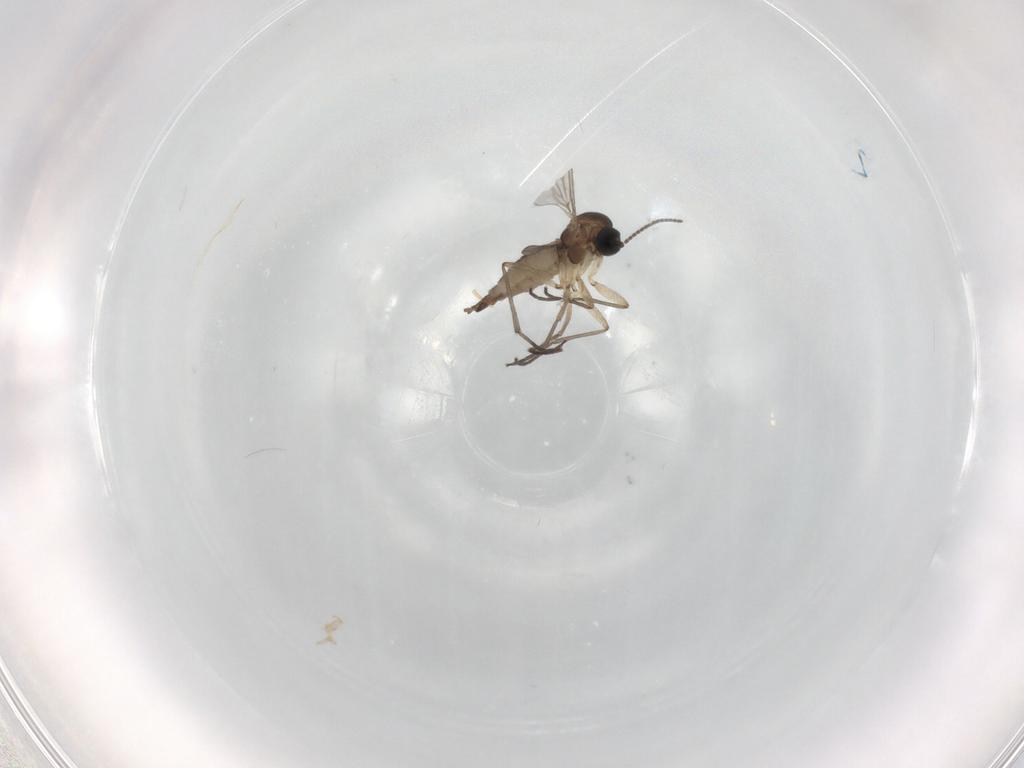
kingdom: Animalia
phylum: Arthropoda
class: Insecta
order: Diptera
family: Sciaridae
